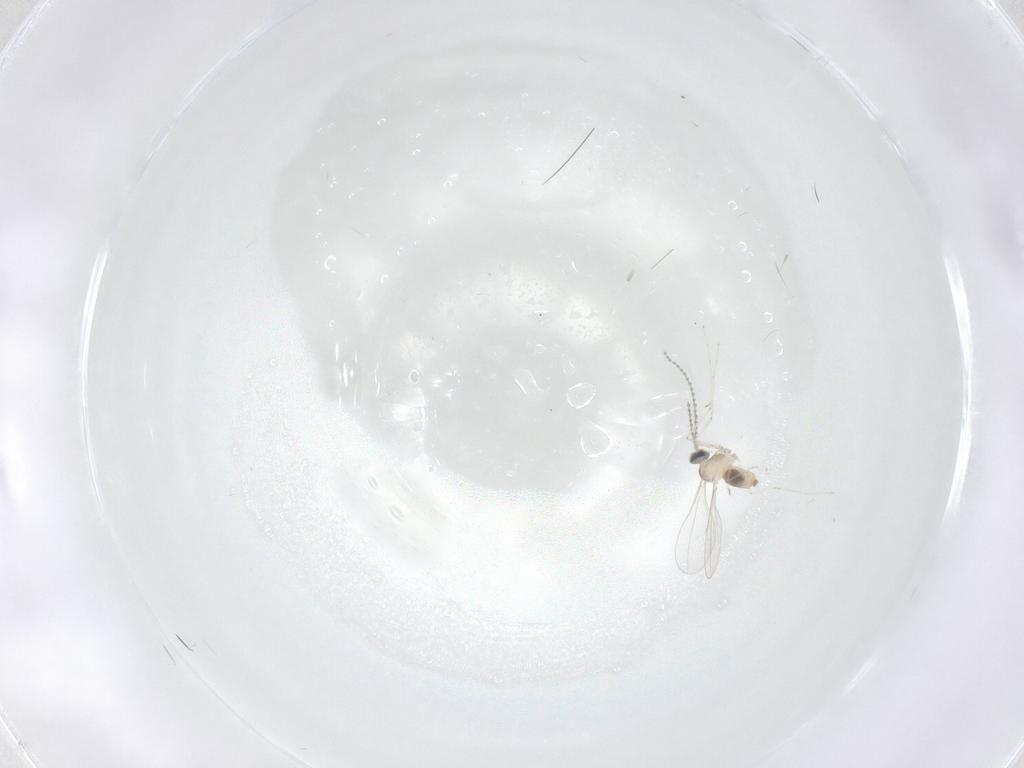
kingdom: Animalia
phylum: Arthropoda
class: Insecta
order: Diptera
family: Cecidomyiidae
